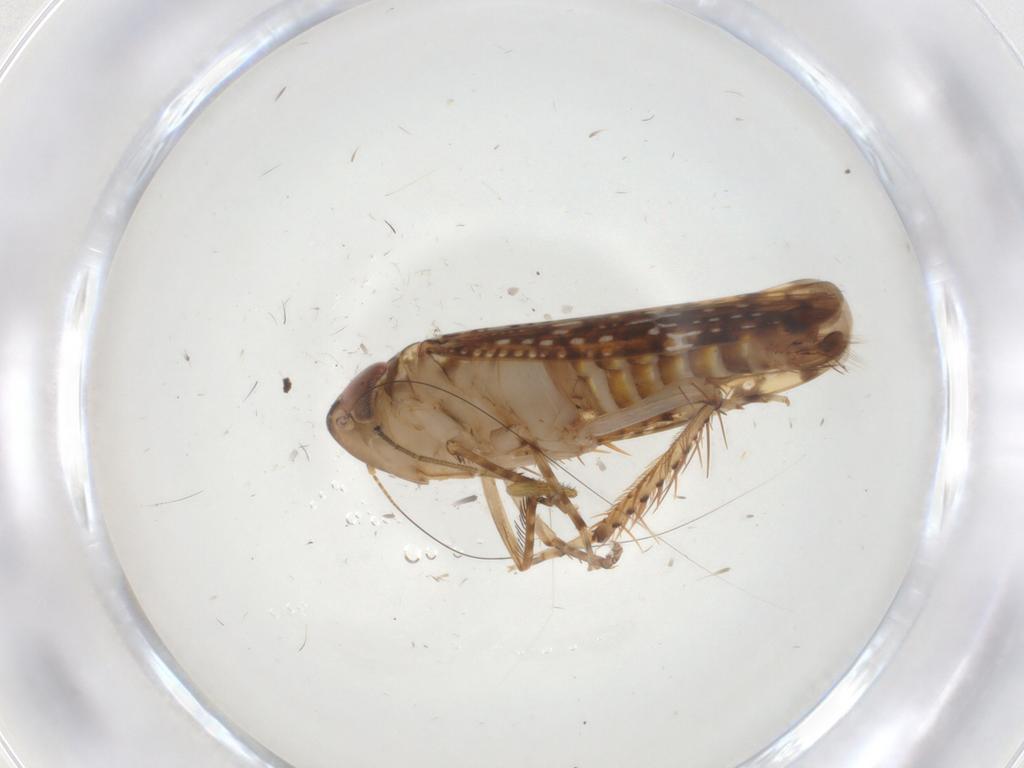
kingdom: Animalia
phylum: Arthropoda
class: Insecta
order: Hemiptera
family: Cicadellidae
